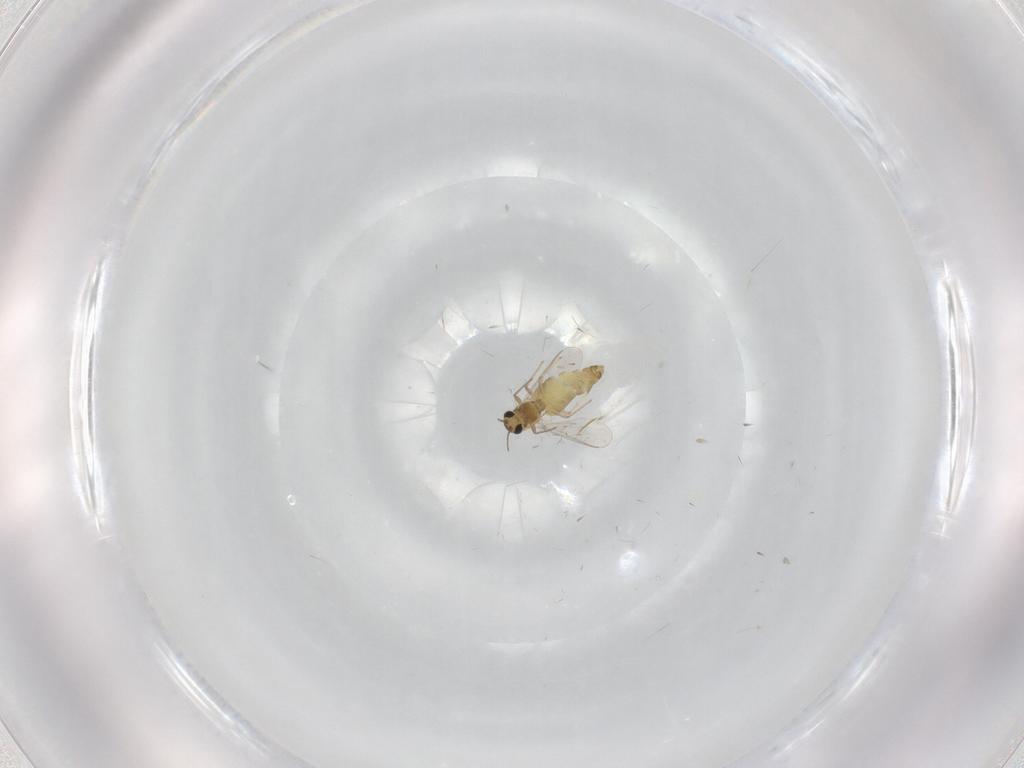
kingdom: Animalia
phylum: Arthropoda
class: Insecta
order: Diptera
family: Chironomidae
